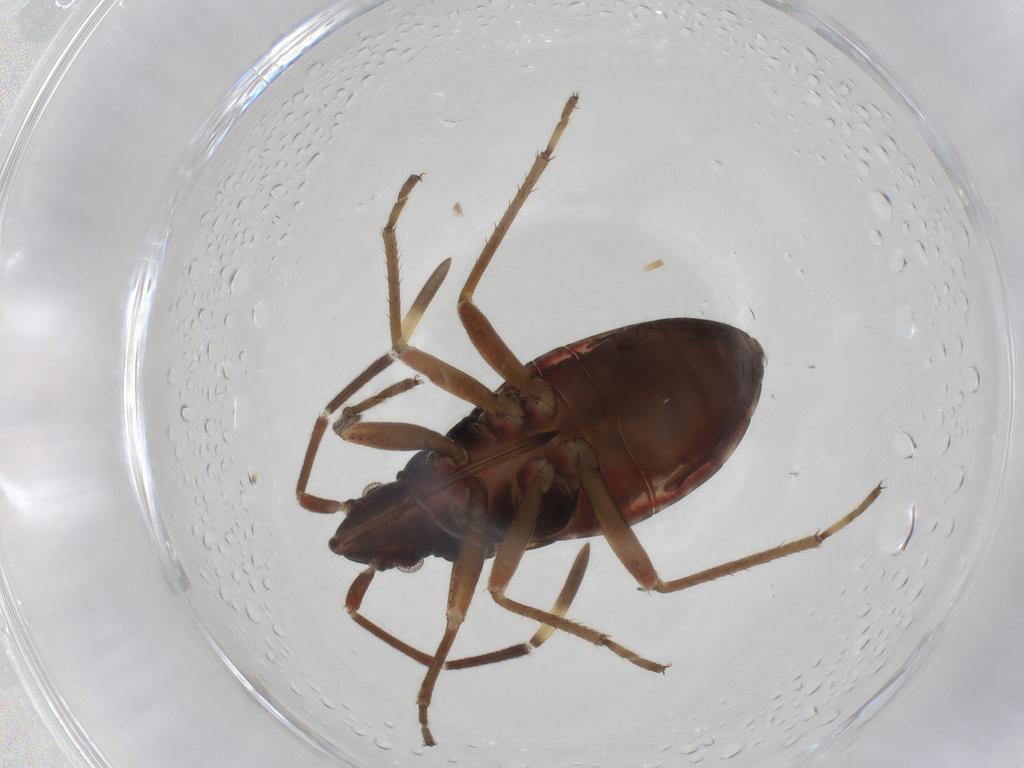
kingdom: Animalia
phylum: Arthropoda
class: Insecta
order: Hemiptera
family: Rhyparochromidae
